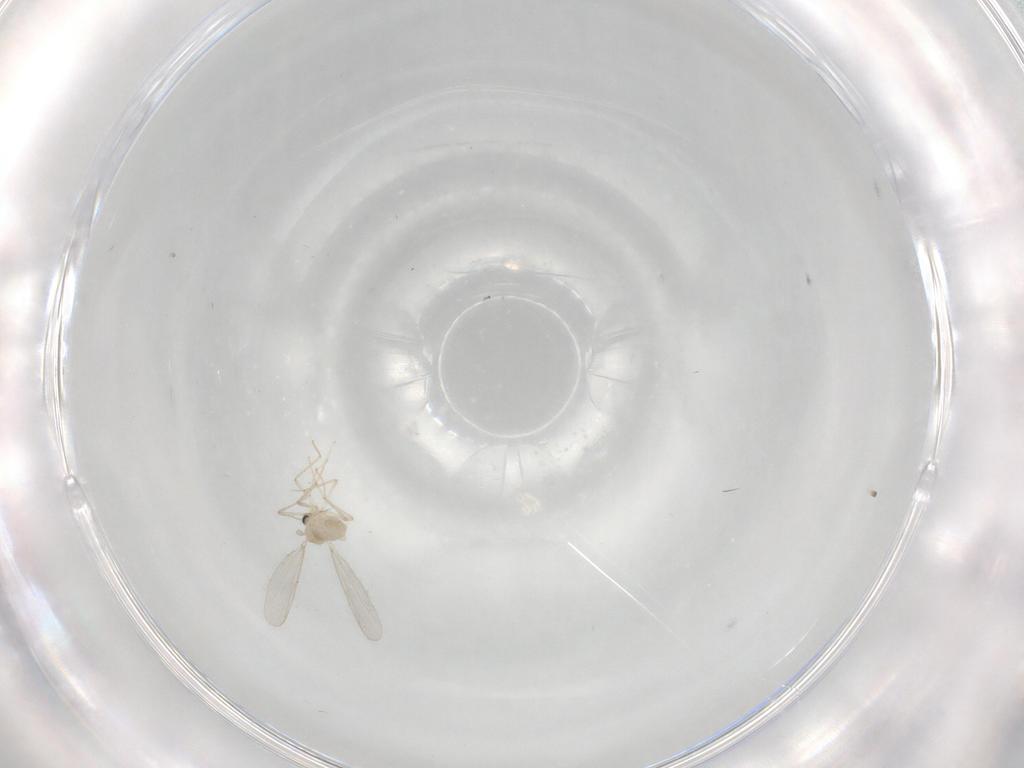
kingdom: Animalia
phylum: Arthropoda
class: Insecta
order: Diptera
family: Chironomidae
